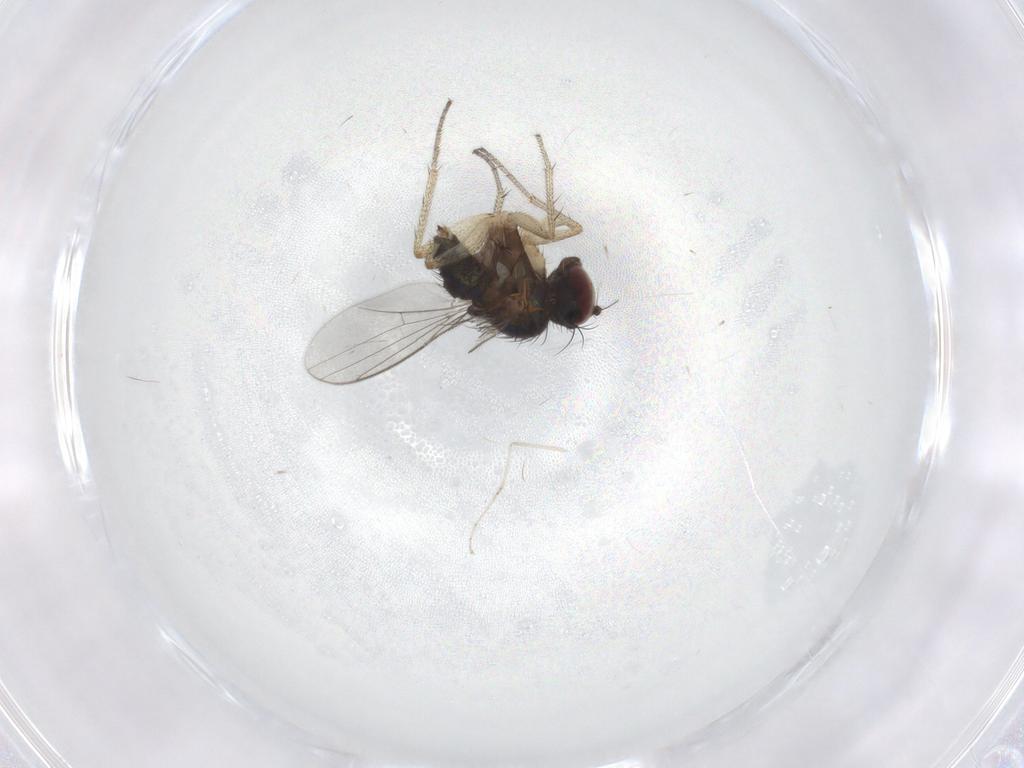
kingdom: Animalia
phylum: Arthropoda
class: Insecta
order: Diptera
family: Dolichopodidae
